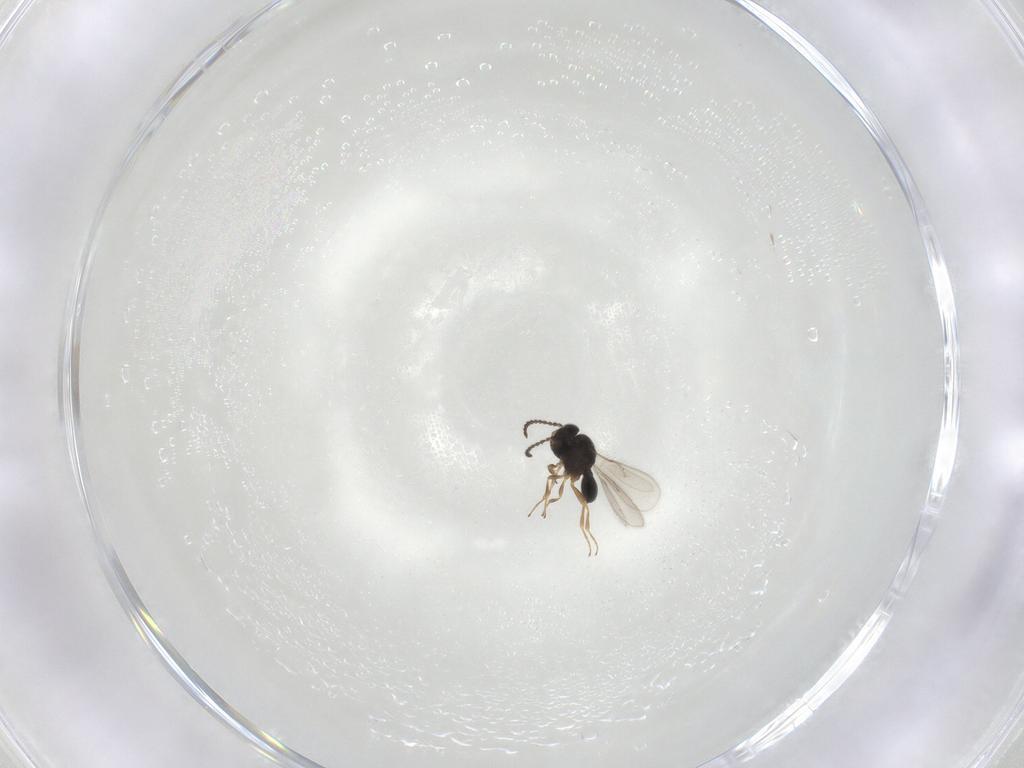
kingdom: Animalia
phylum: Arthropoda
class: Insecta
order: Hymenoptera
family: Scelionidae
